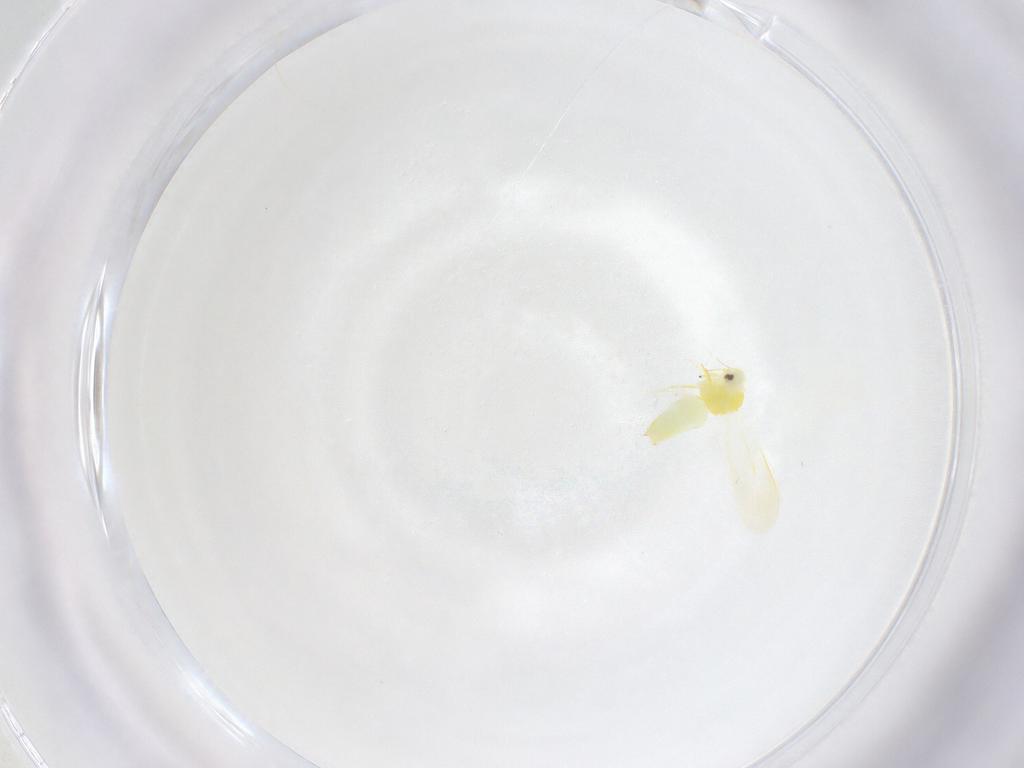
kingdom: Animalia
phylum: Arthropoda
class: Insecta
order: Hemiptera
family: Aleyrodidae
